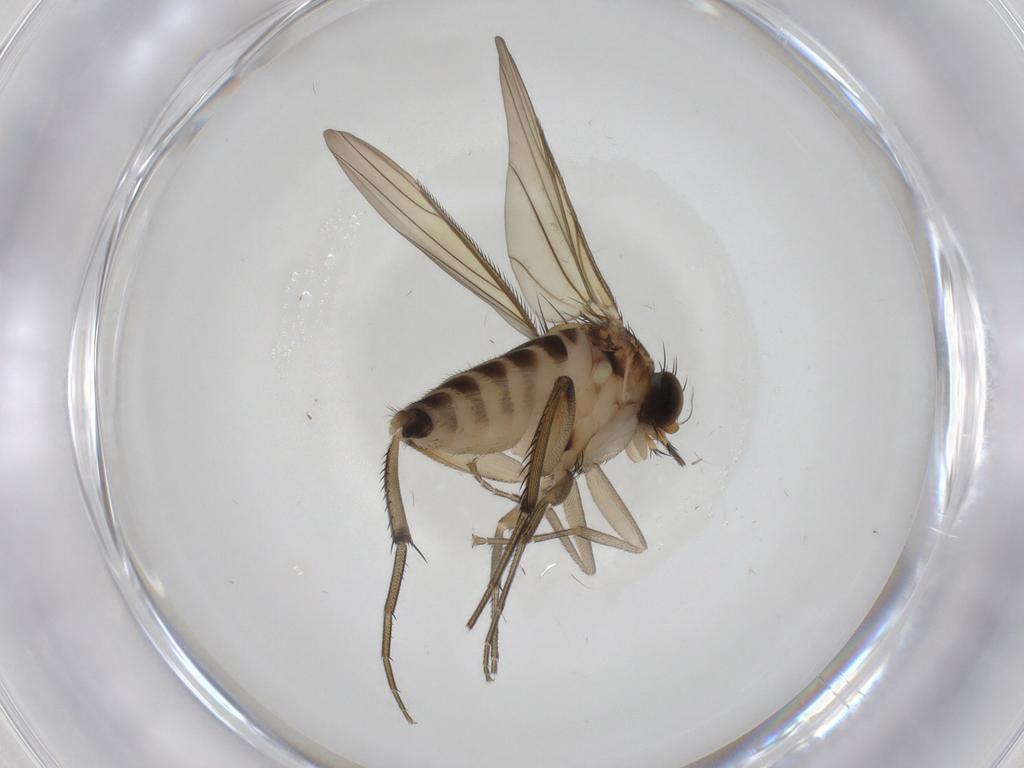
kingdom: Animalia
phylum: Arthropoda
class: Insecta
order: Diptera
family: Phoridae
